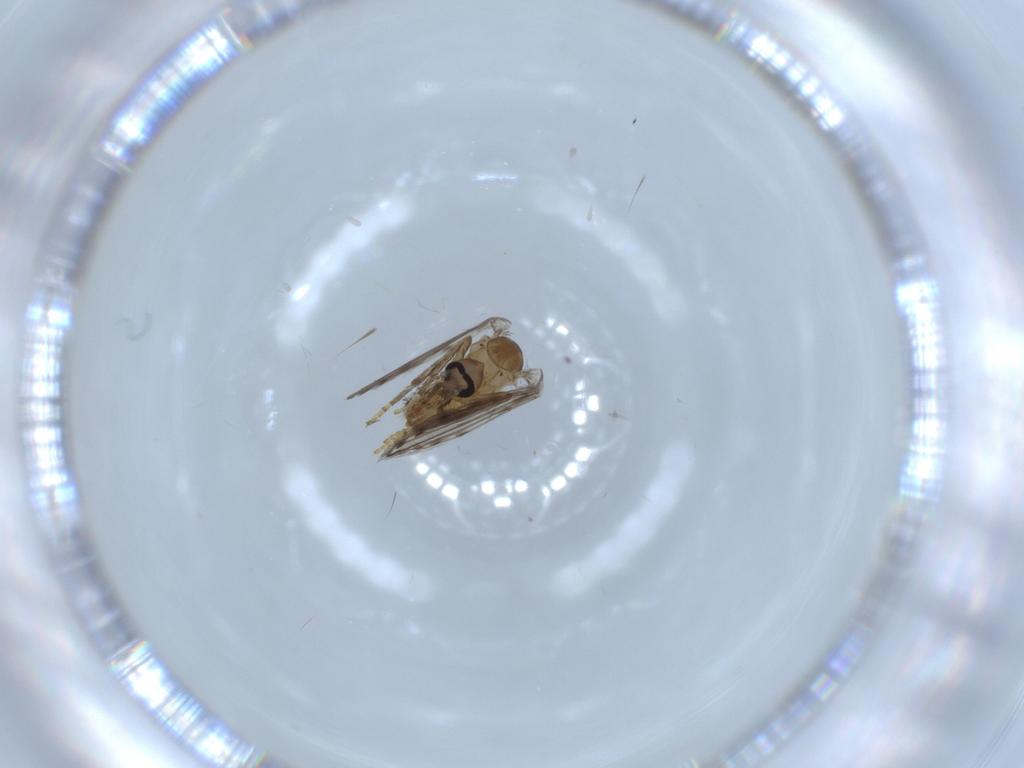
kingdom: Animalia
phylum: Arthropoda
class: Insecta
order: Diptera
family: Psychodidae
